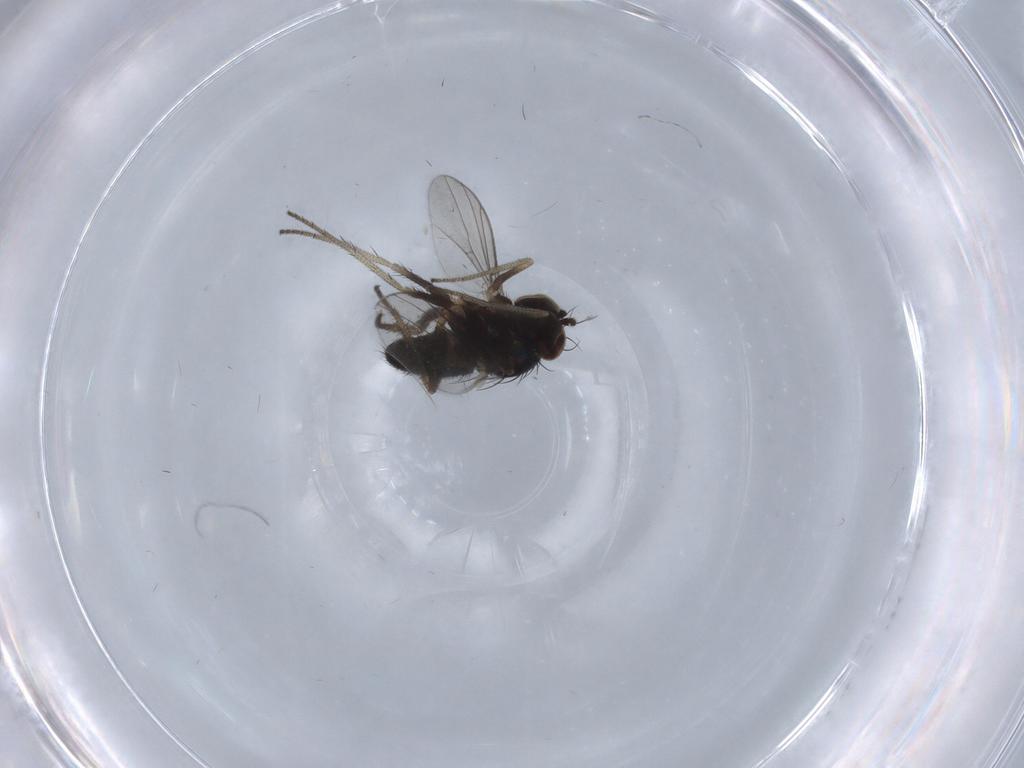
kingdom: Animalia
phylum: Arthropoda
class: Insecta
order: Diptera
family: Dolichopodidae
